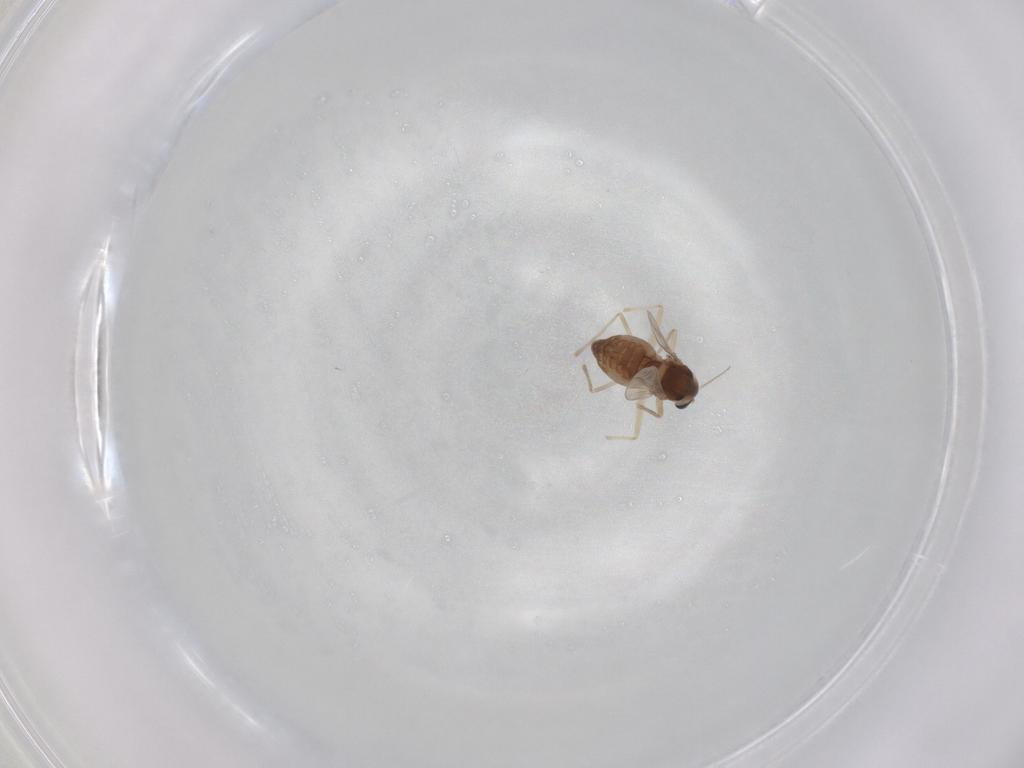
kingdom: Animalia
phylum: Arthropoda
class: Insecta
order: Diptera
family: Chironomidae
